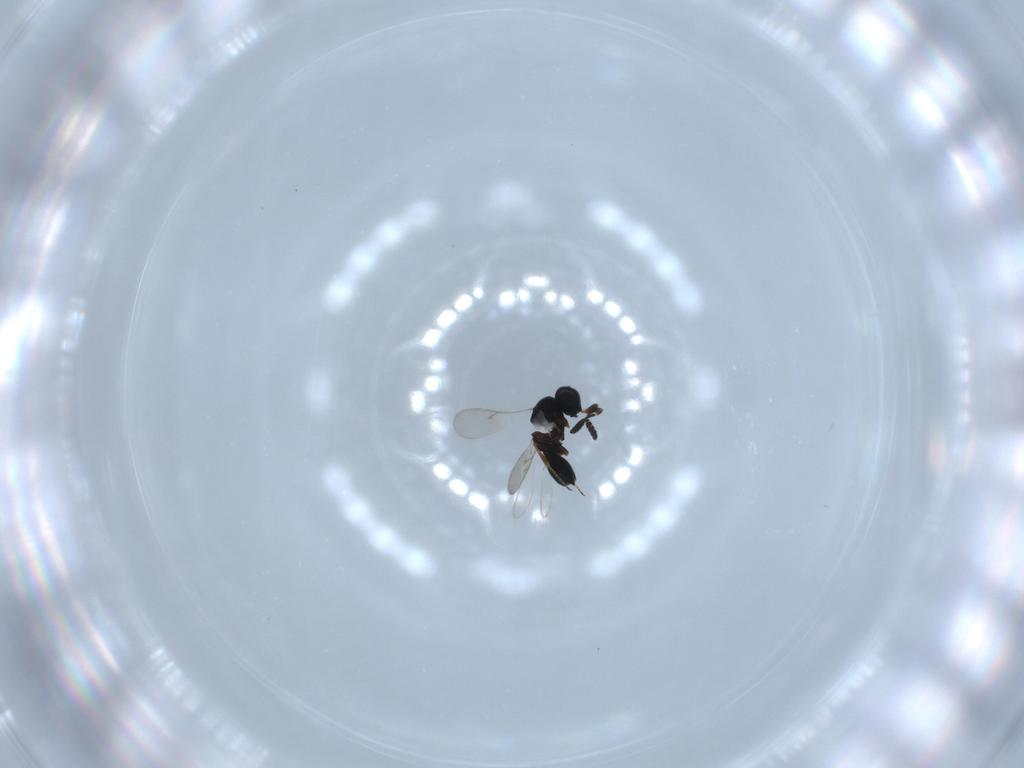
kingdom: Animalia
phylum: Arthropoda
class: Insecta
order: Hymenoptera
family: Scelionidae
